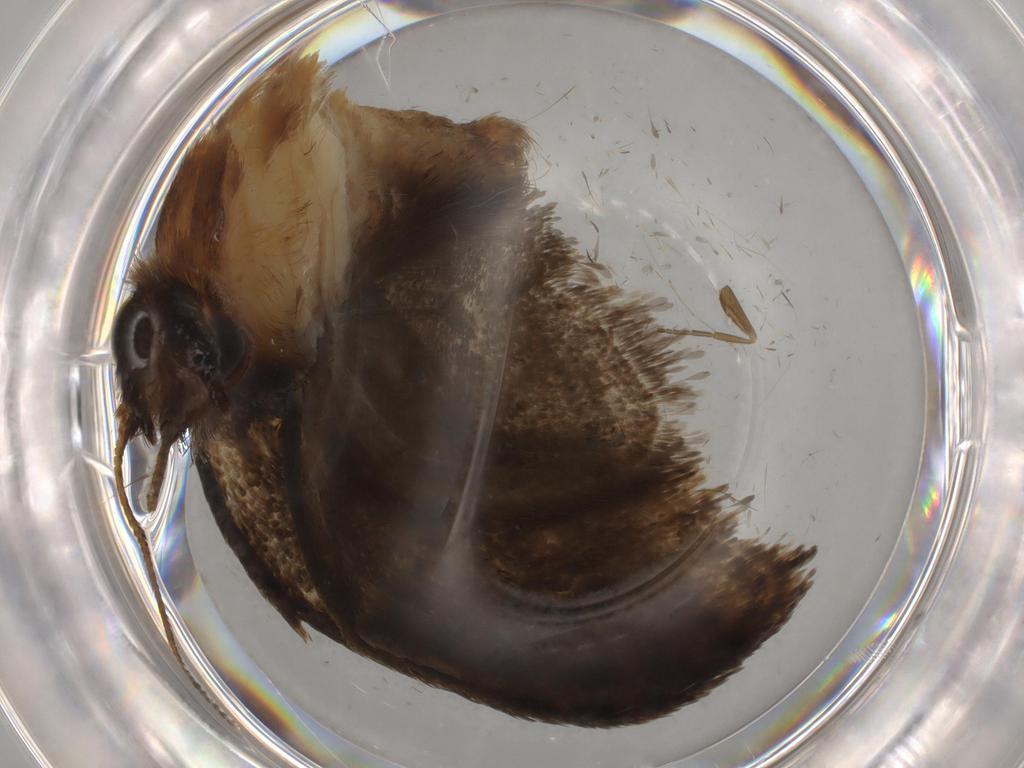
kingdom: Animalia
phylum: Arthropoda
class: Insecta
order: Lepidoptera
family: Tineidae
